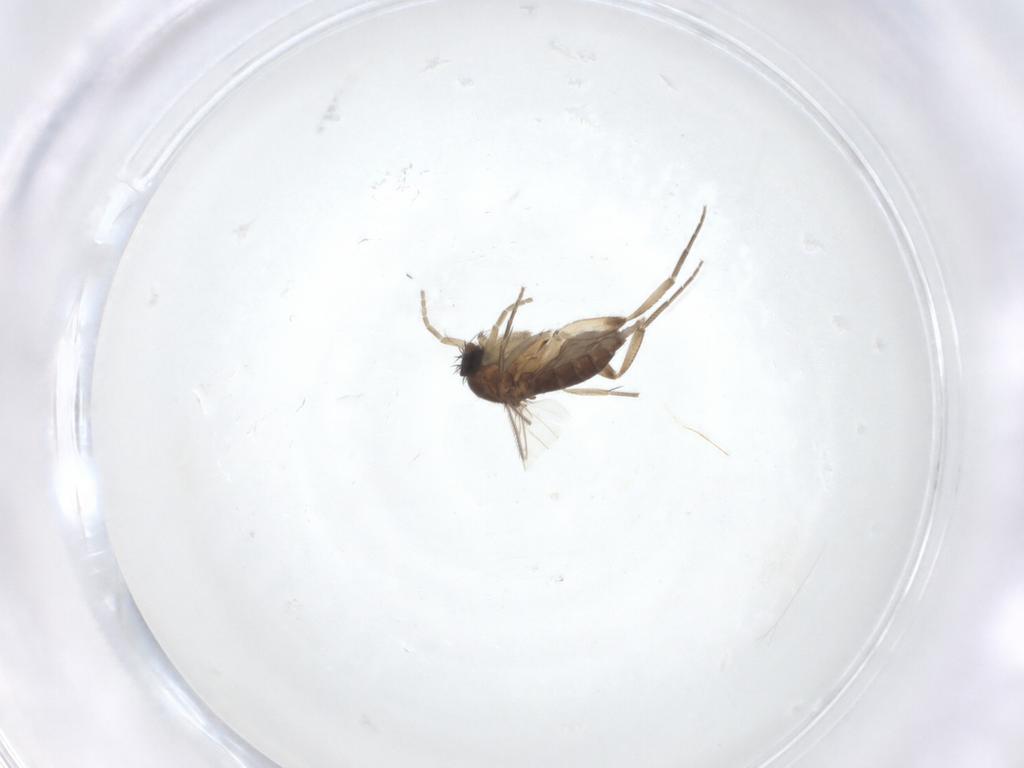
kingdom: Animalia
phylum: Arthropoda
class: Insecta
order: Diptera
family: Phoridae
